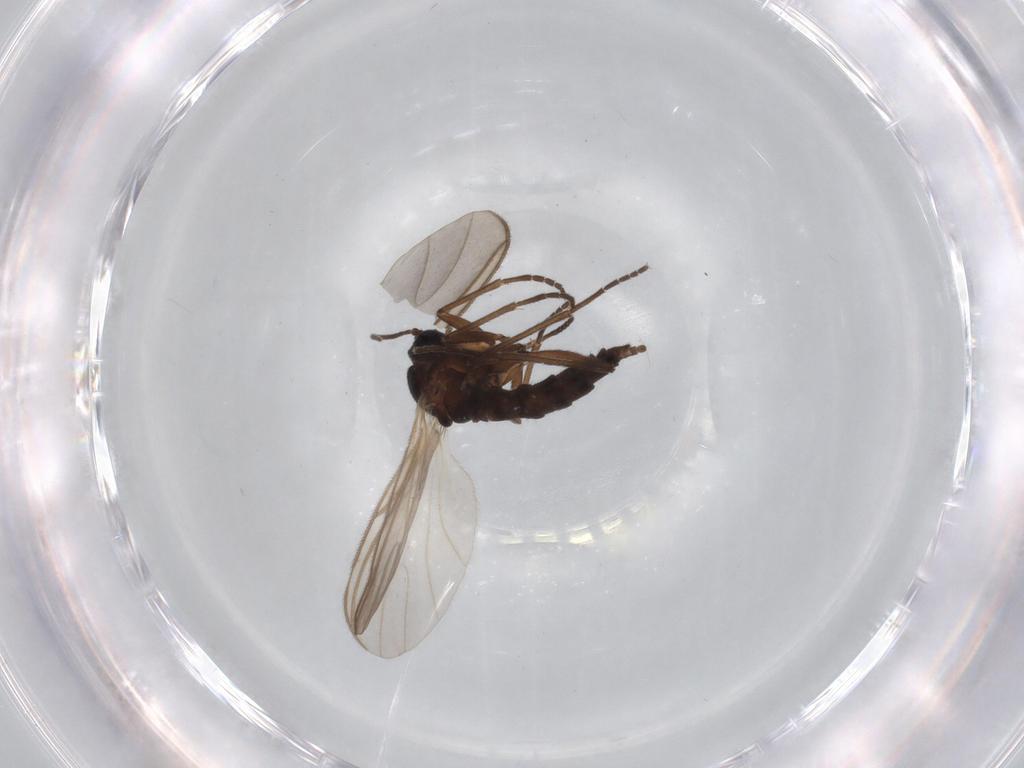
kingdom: Animalia
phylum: Arthropoda
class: Insecta
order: Diptera
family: Sciaridae
